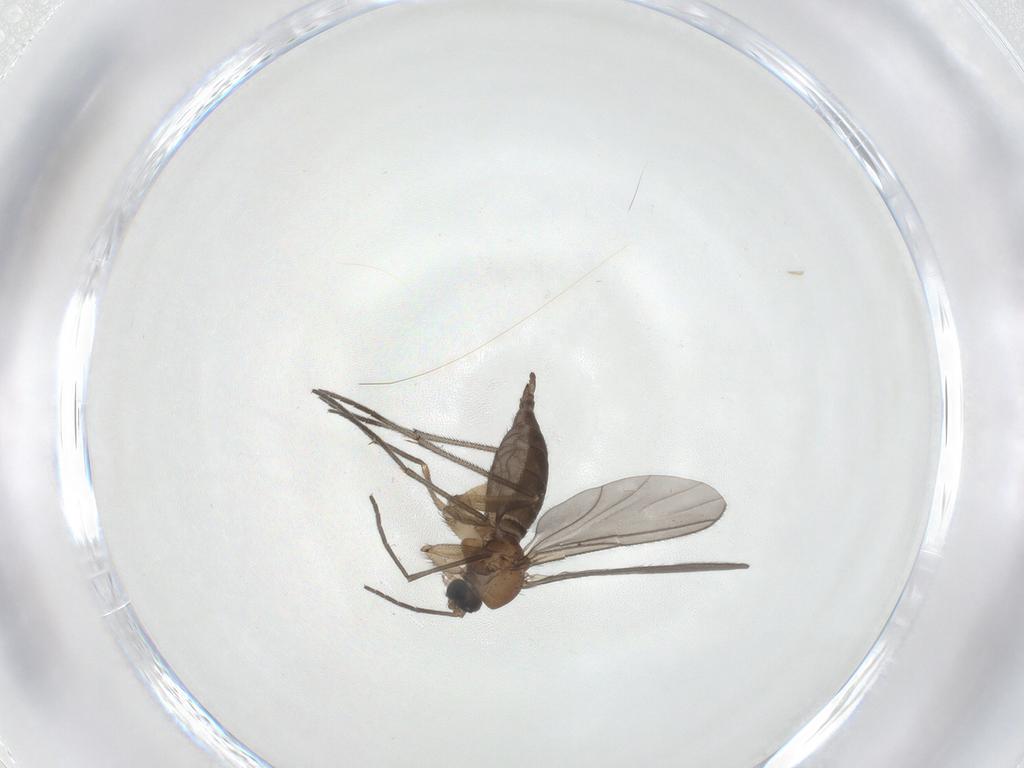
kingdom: Animalia
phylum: Arthropoda
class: Insecta
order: Diptera
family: Sciaridae
